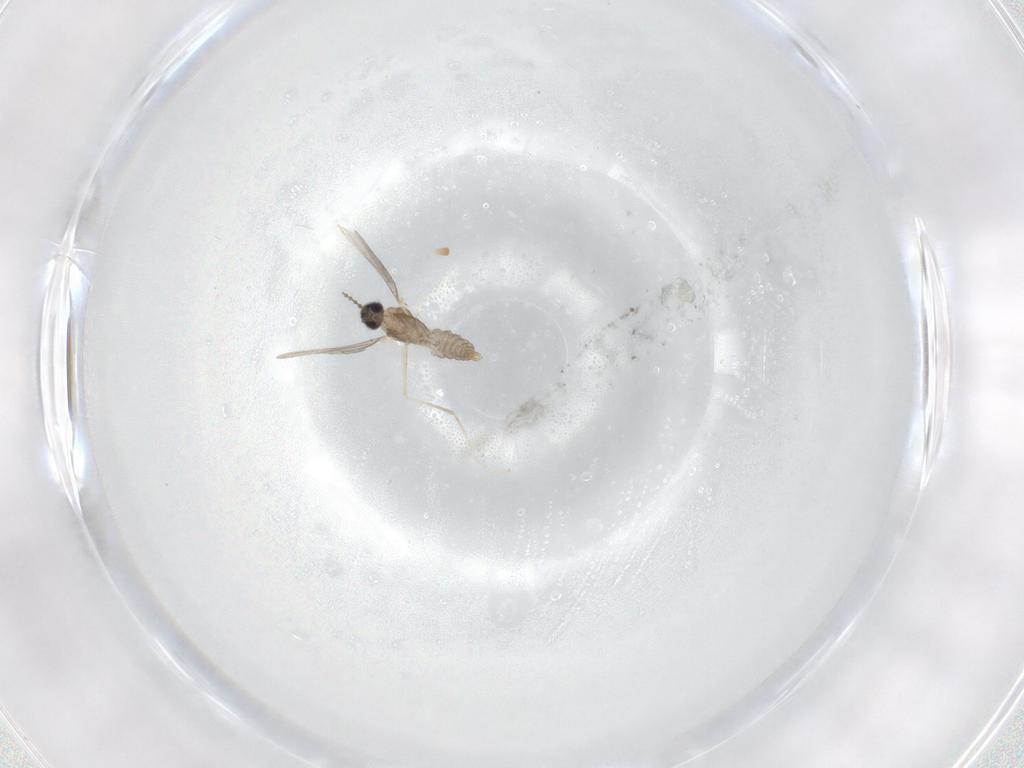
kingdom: Animalia
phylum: Arthropoda
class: Insecta
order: Diptera
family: Cecidomyiidae
